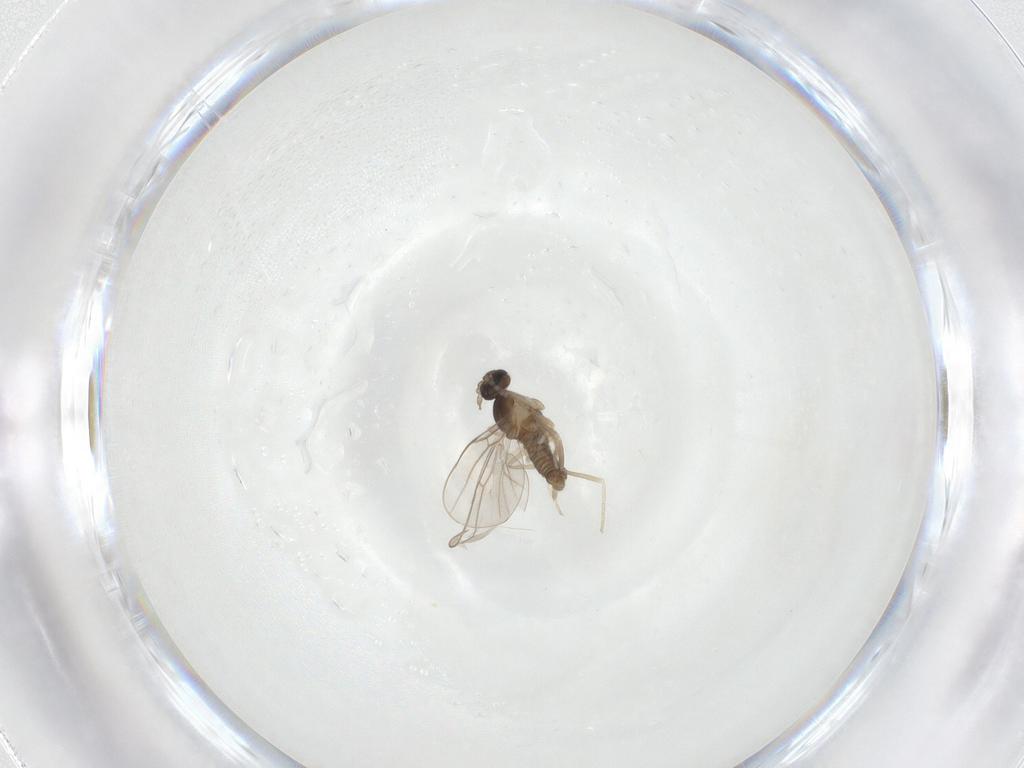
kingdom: Animalia
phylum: Arthropoda
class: Insecta
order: Diptera
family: Cecidomyiidae
